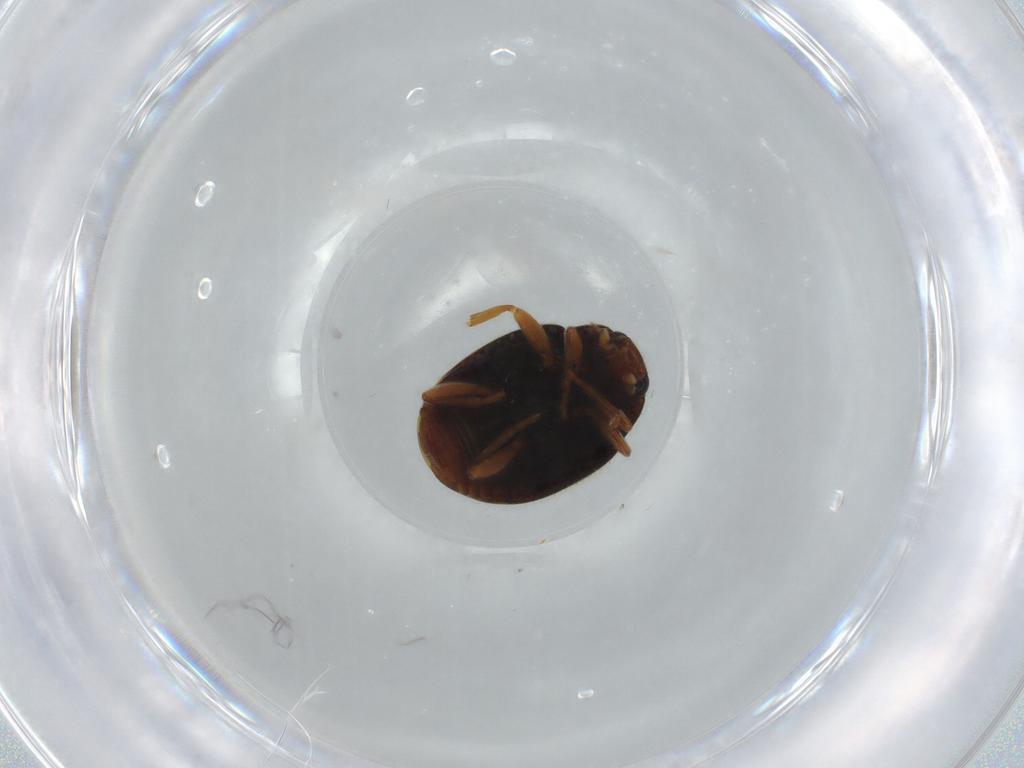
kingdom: Animalia
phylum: Arthropoda
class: Insecta
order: Coleoptera
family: Coccinellidae
